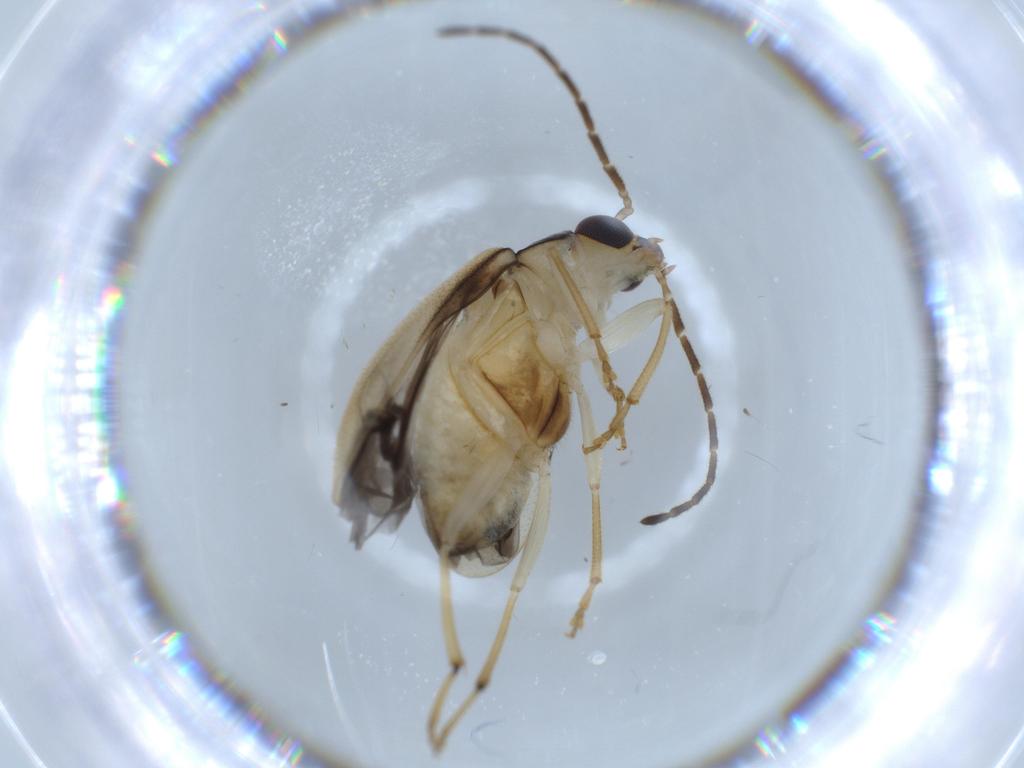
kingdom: Animalia
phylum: Arthropoda
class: Insecta
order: Coleoptera
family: Chrysomelidae
